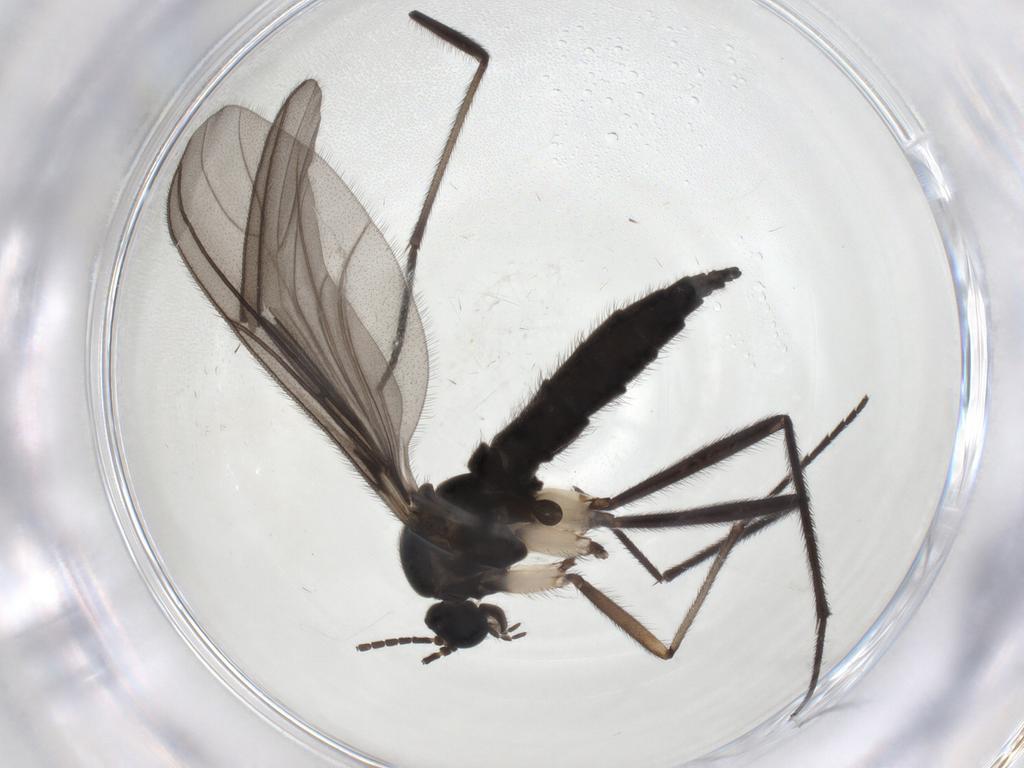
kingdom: Animalia
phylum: Arthropoda
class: Insecta
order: Diptera
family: Sciaridae
